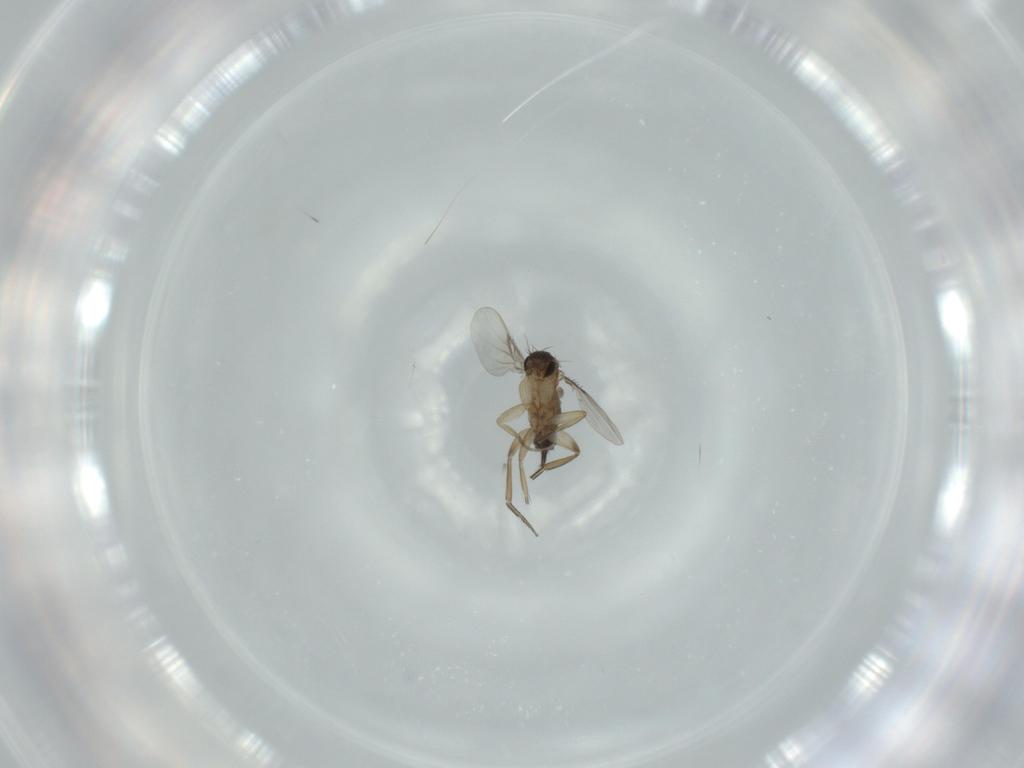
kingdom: Animalia
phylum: Arthropoda
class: Insecta
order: Diptera
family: Phoridae
